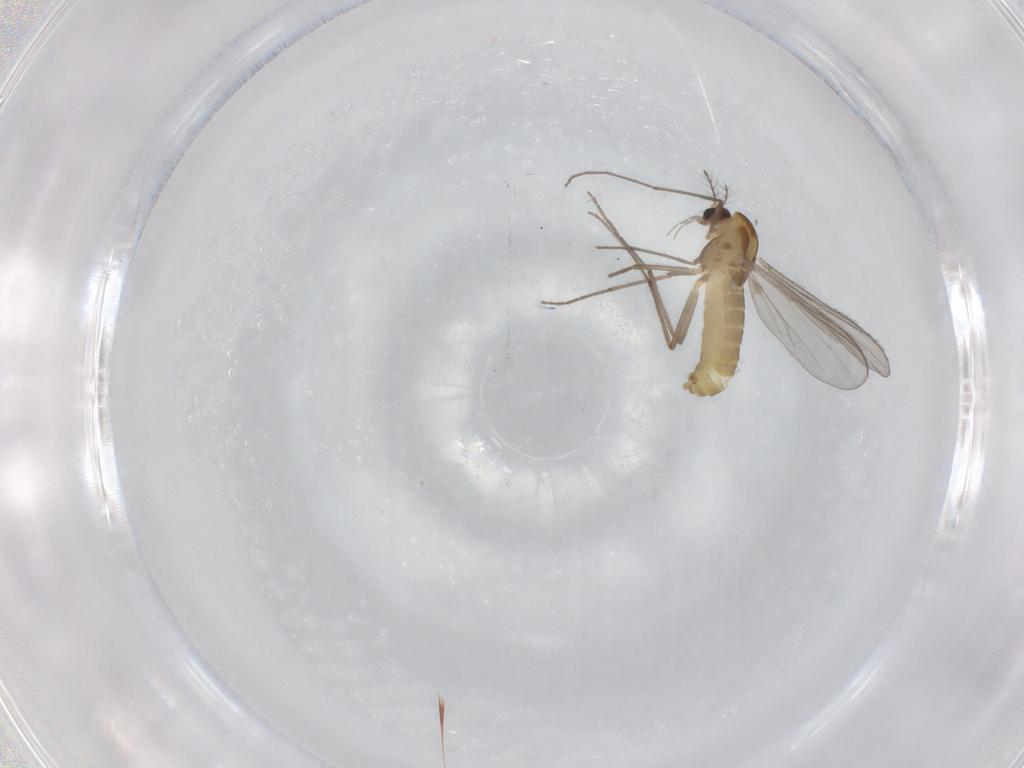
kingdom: Animalia
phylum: Arthropoda
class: Insecta
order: Diptera
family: Chironomidae
